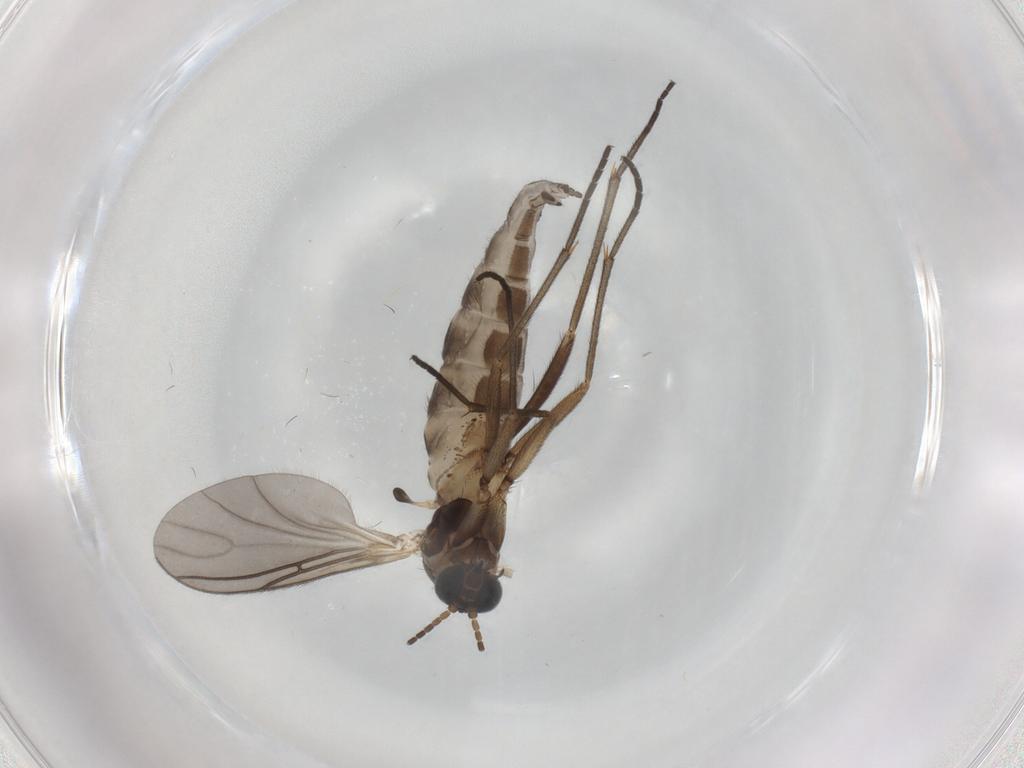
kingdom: Animalia
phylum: Arthropoda
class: Insecta
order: Diptera
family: Sciaridae
